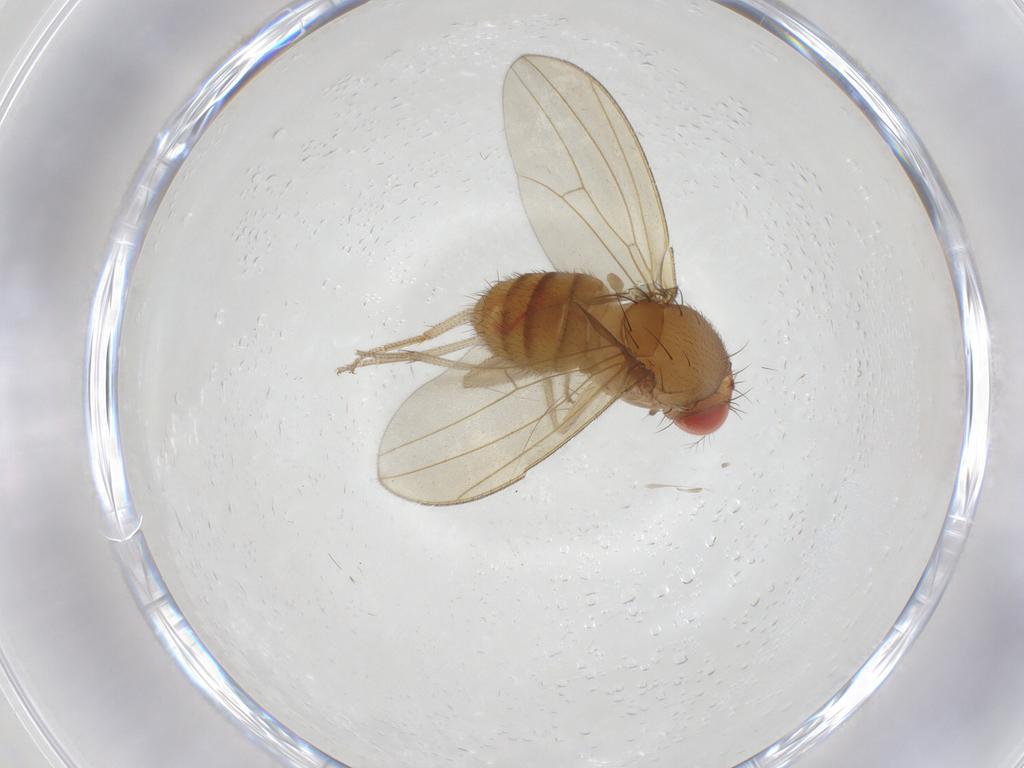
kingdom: Animalia
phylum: Arthropoda
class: Insecta
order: Diptera
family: Drosophilidae
